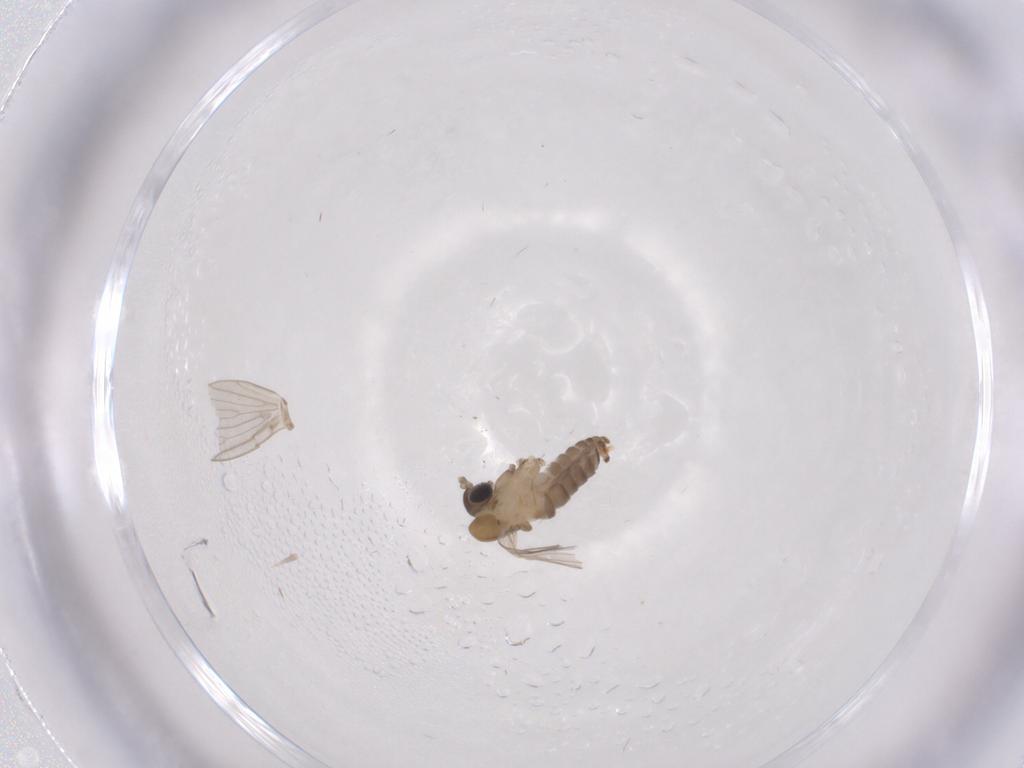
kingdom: Animalia
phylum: Arthropoda
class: Insecta
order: Diptera
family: Psychodidae
